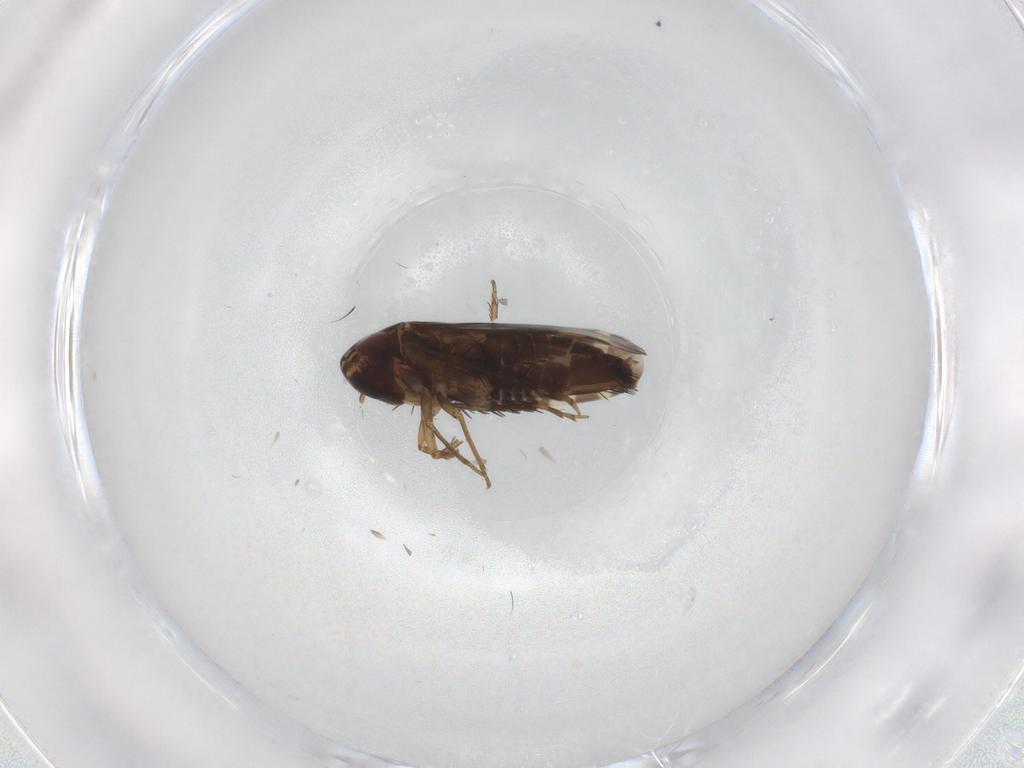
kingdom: Animalia
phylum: Arthropoda
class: Insecta
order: Hemiptera
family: Cicadellidae
